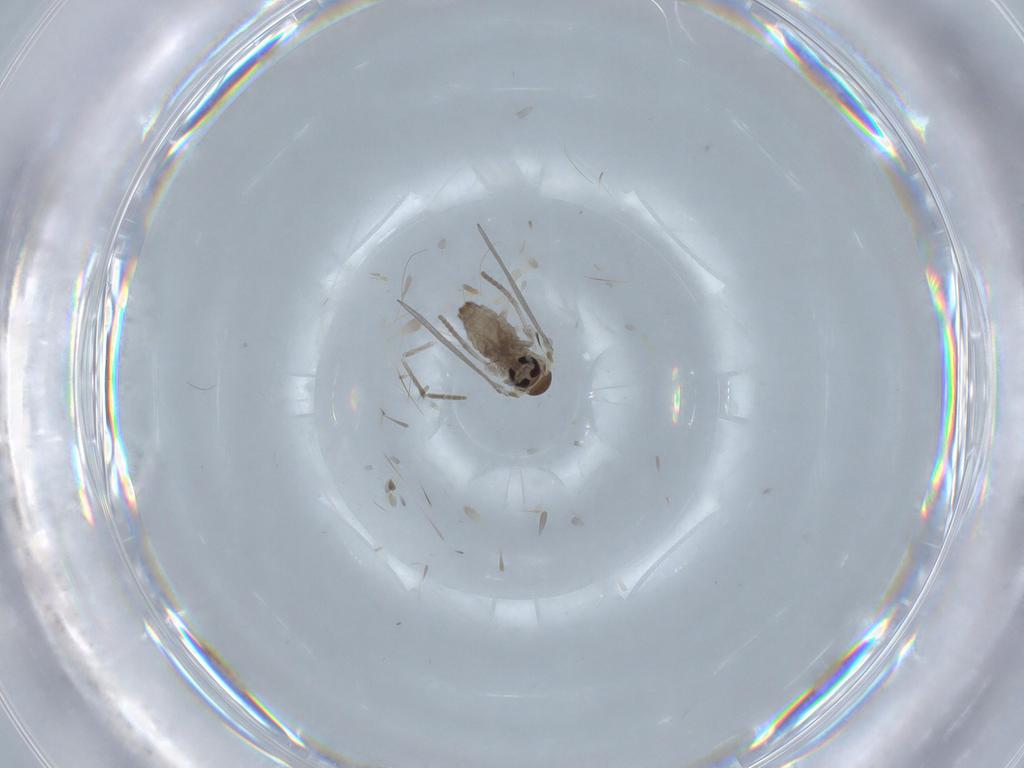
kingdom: Animalia
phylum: Arthropoda
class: Insecta
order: Diptera
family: Psychodidae
